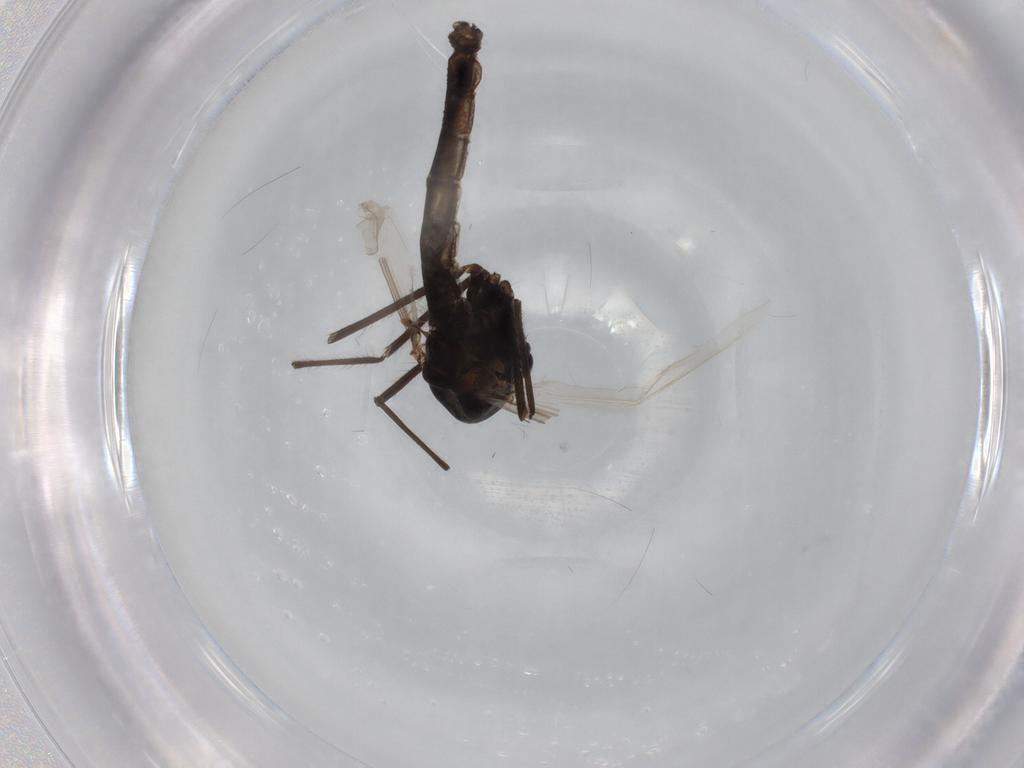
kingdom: Animalia
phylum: Arthropoda
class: Insecta
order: Diptera
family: Chironomidae
